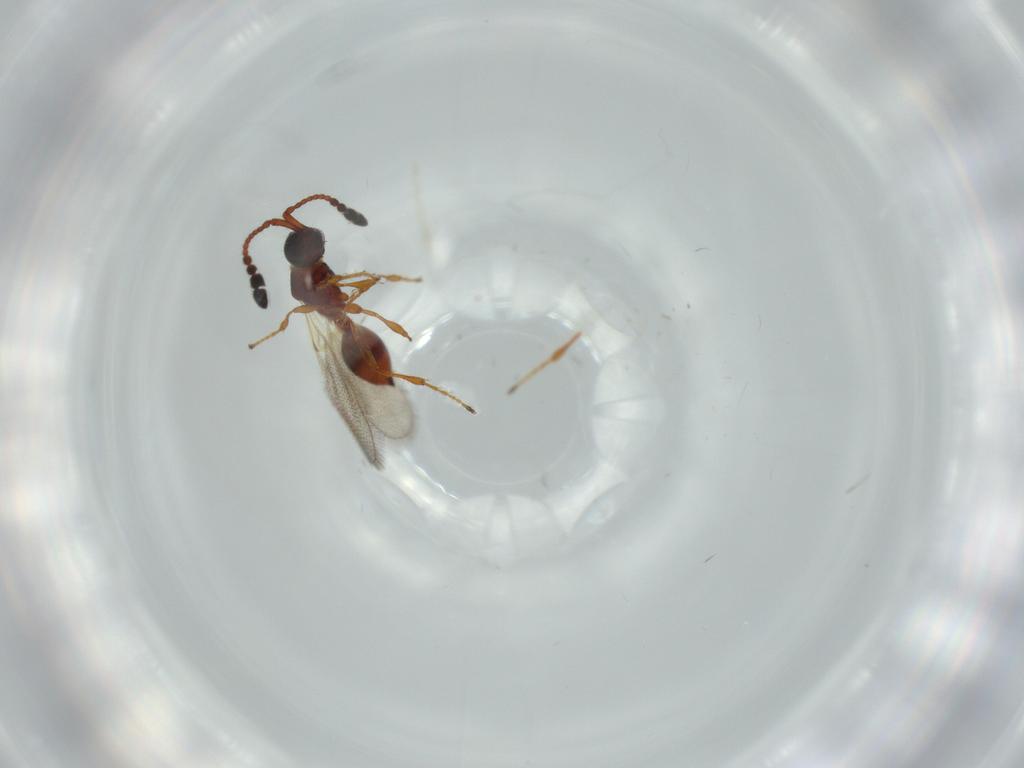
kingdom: Animalia
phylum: Arthropoda
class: Insecta
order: Hymenoptera
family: Diapriidae
